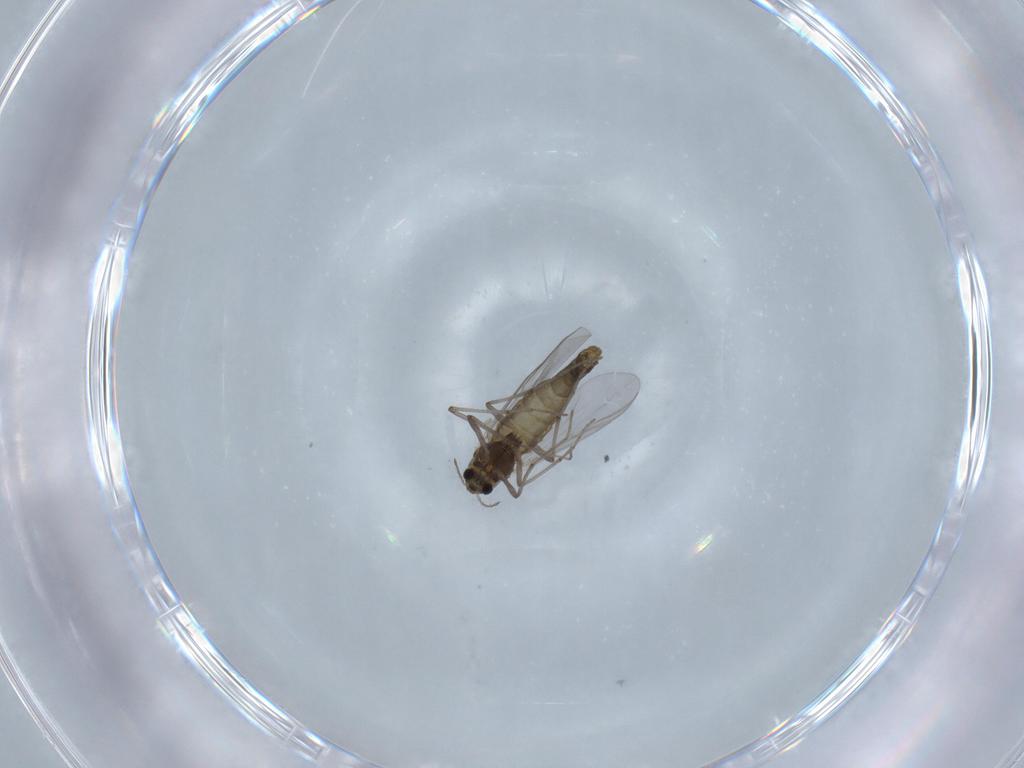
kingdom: Animalia
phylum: Arthropoda
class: Insecta
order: Diptera
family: Chironomidae
